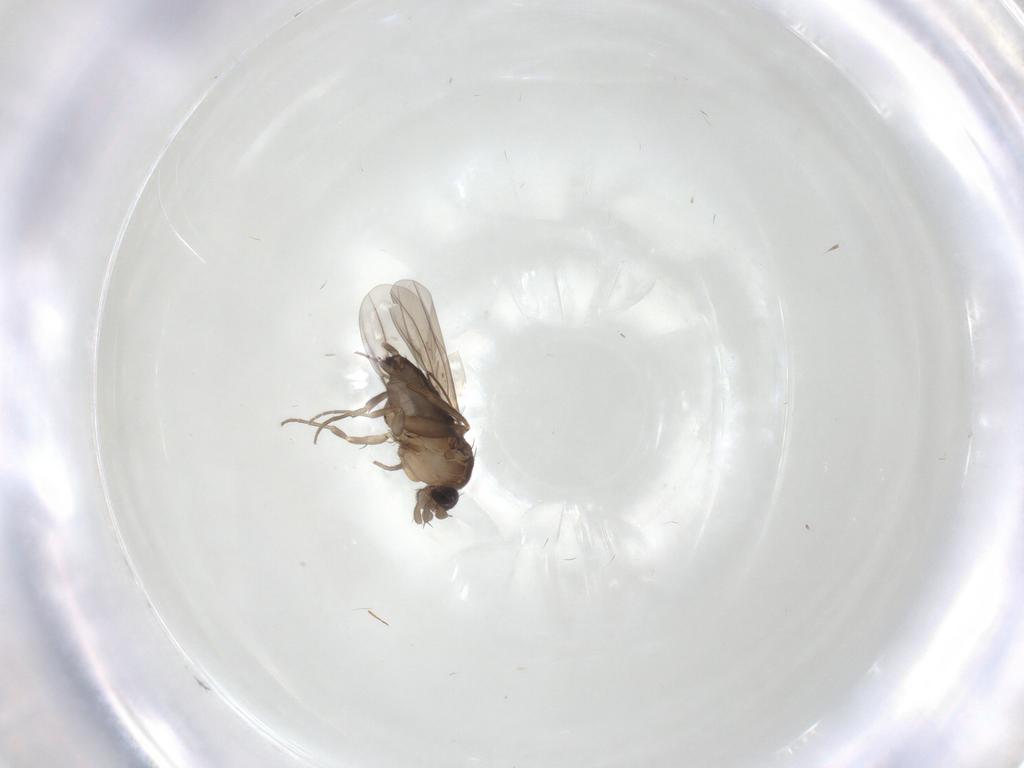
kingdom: Animalia
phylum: Arthropoda
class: Insecta
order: Diptera
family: Phoridae
